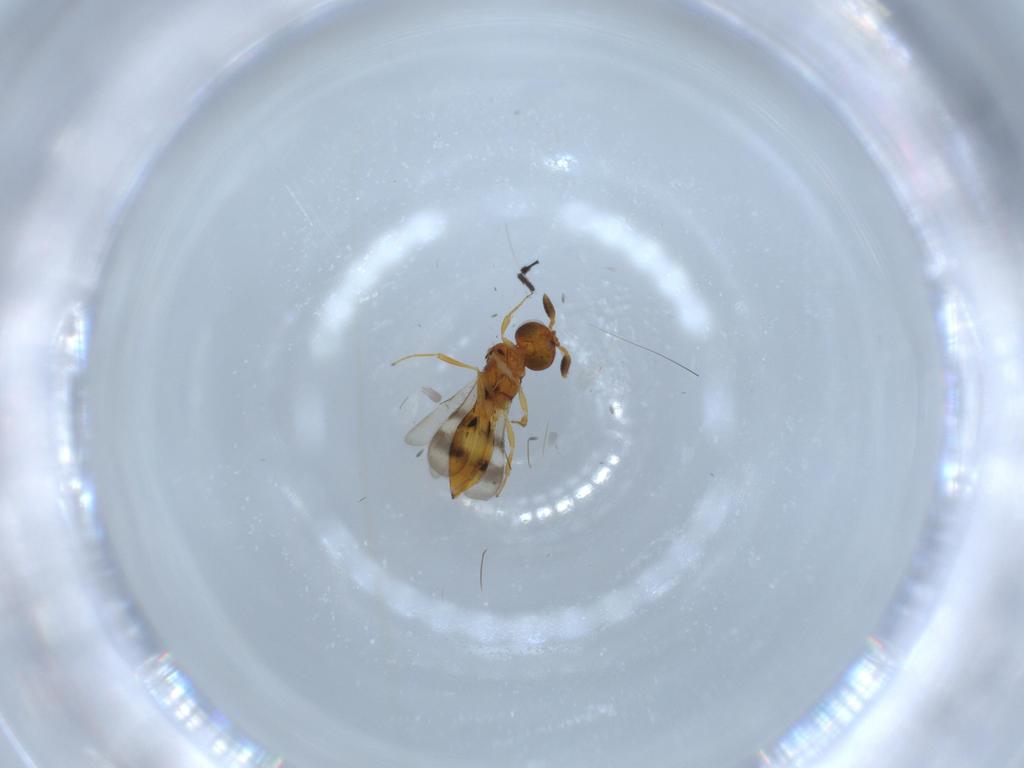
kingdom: Animalia
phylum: Arthropoda
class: Insecta
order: Hymenoptera
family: Scelionidae
